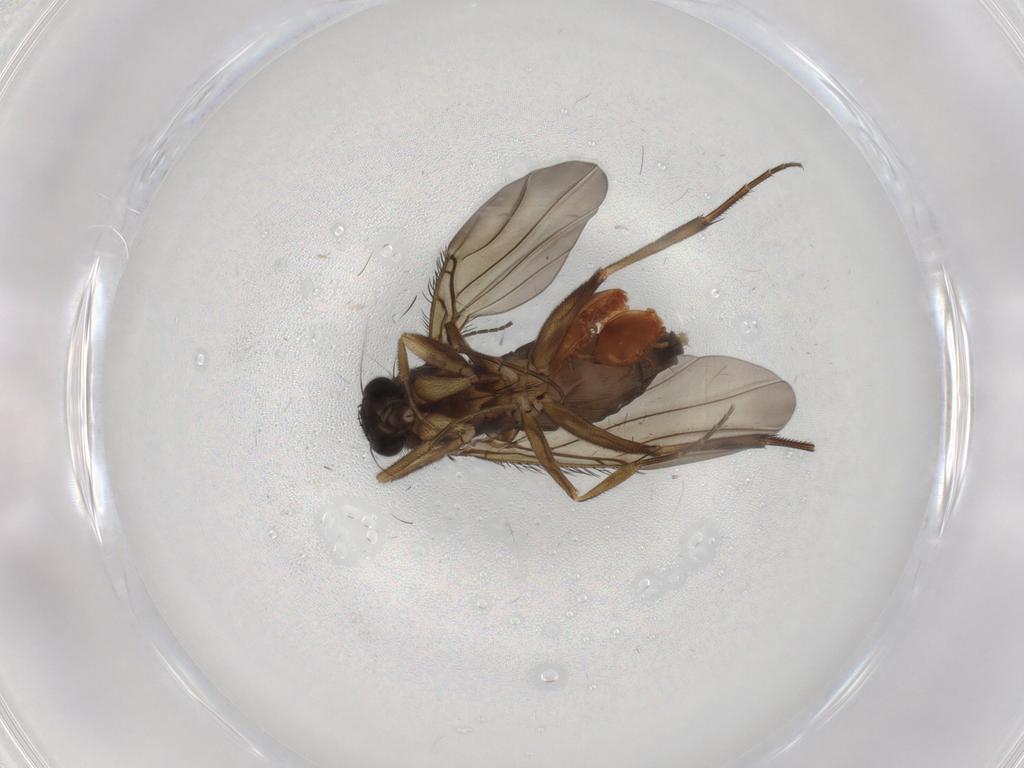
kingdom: Animalia
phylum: Arthropoda
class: Insecta
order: Diptera
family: Phoridae
